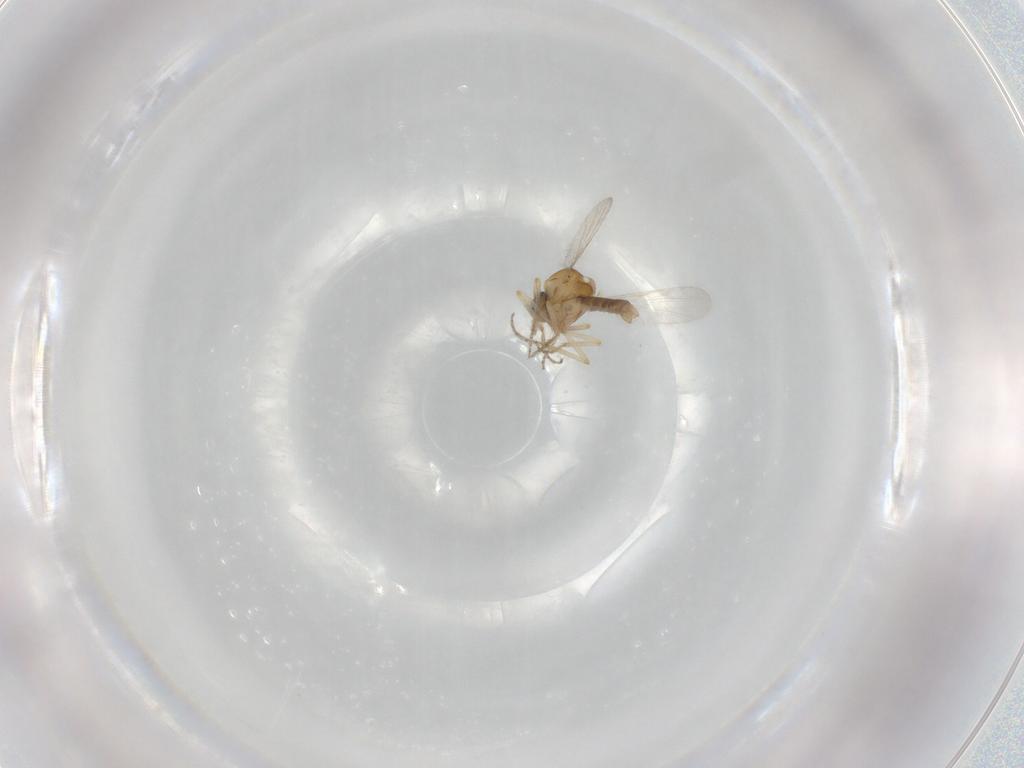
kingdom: Animalia
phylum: Arthropoda
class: Insecta
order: Diptera
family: Ceratopogonidae
